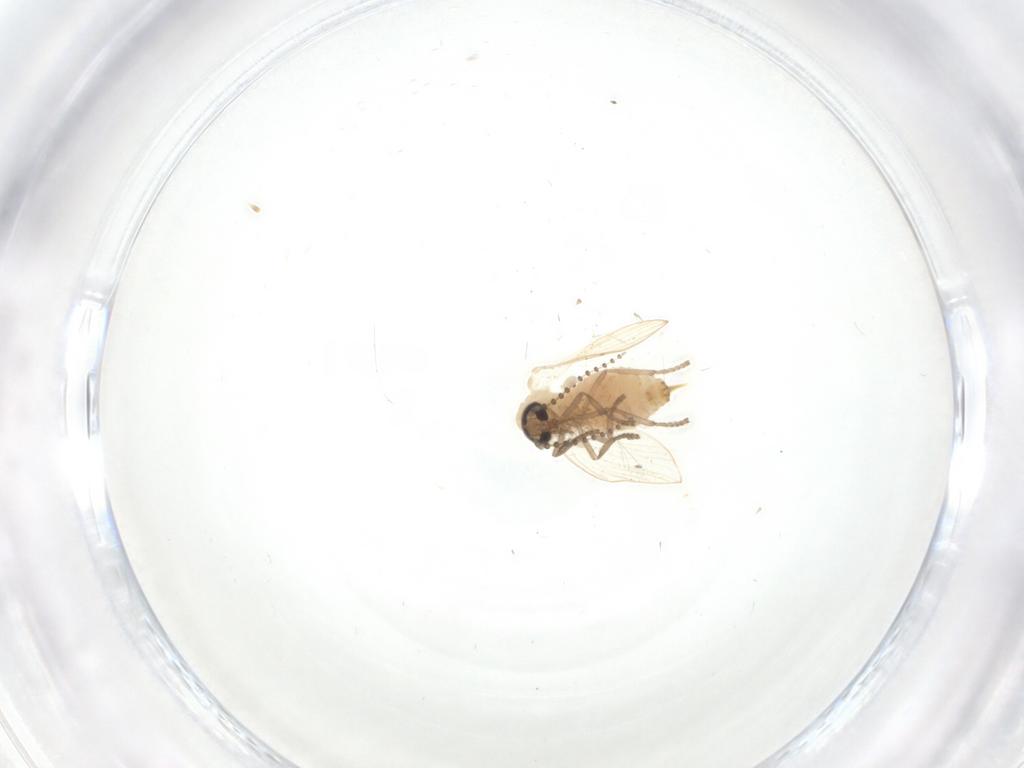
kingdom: Animalia
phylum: Arthropoda
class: Insecta
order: Diptera
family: Psychodidae
